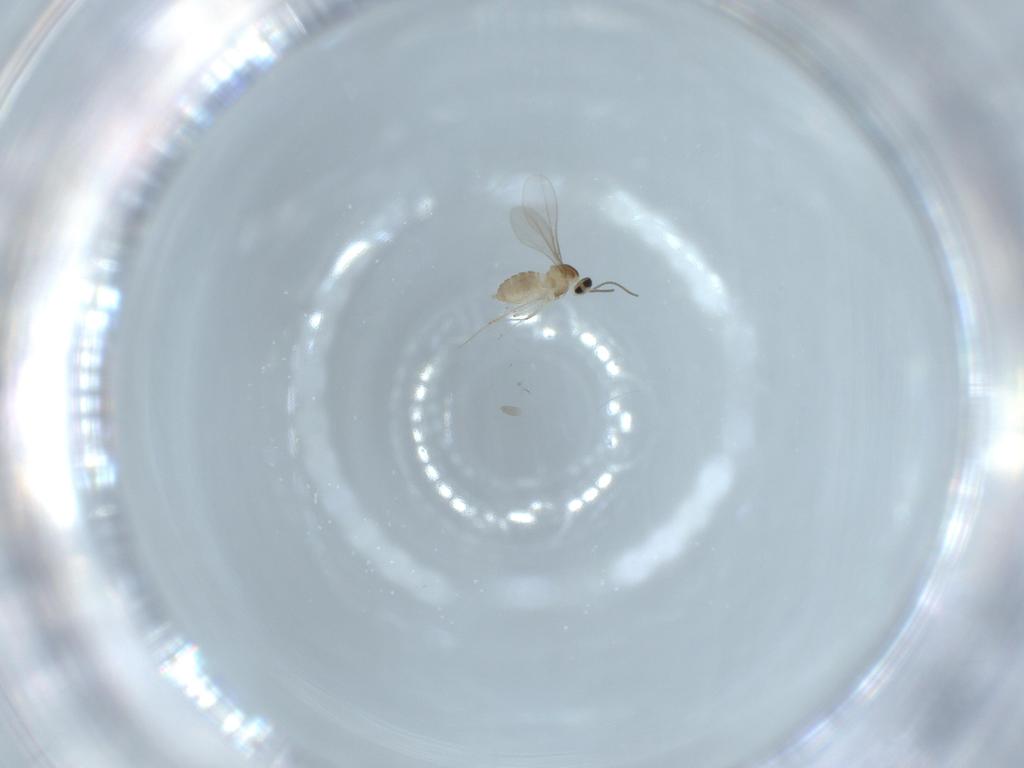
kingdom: Animalia
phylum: Arthropoda
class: Insecta
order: Diptera
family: Cecidomyiidae
